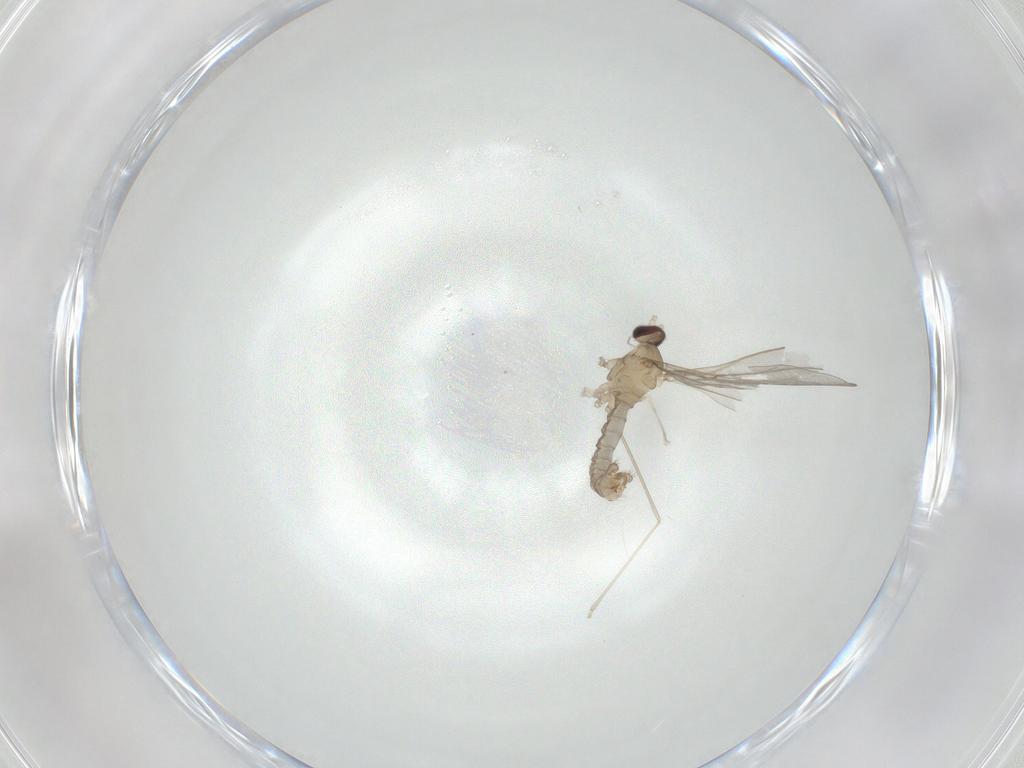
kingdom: Animalia
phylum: Arthropoda
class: Insecta
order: Diptera
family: Cecidomyiidae
